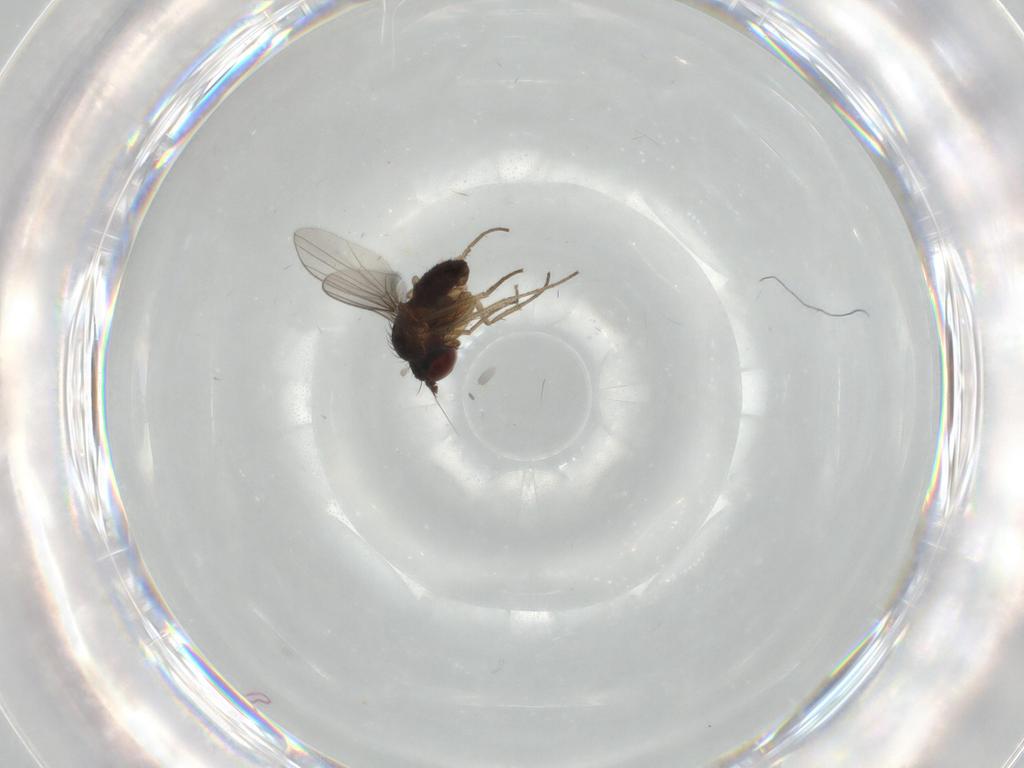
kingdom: Animalia
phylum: Arthropoda
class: Insecta
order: Diptera
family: Dolichopodidae
